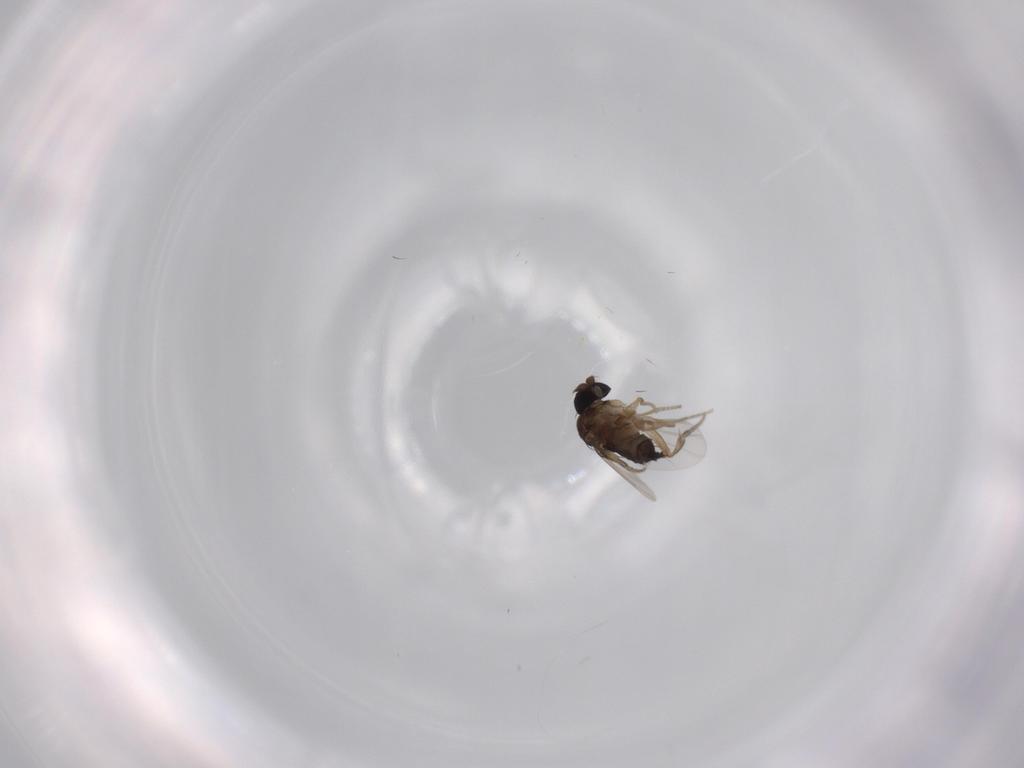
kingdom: Animalia
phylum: Arthropoda
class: Insecta
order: Diptera
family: Phoridae
